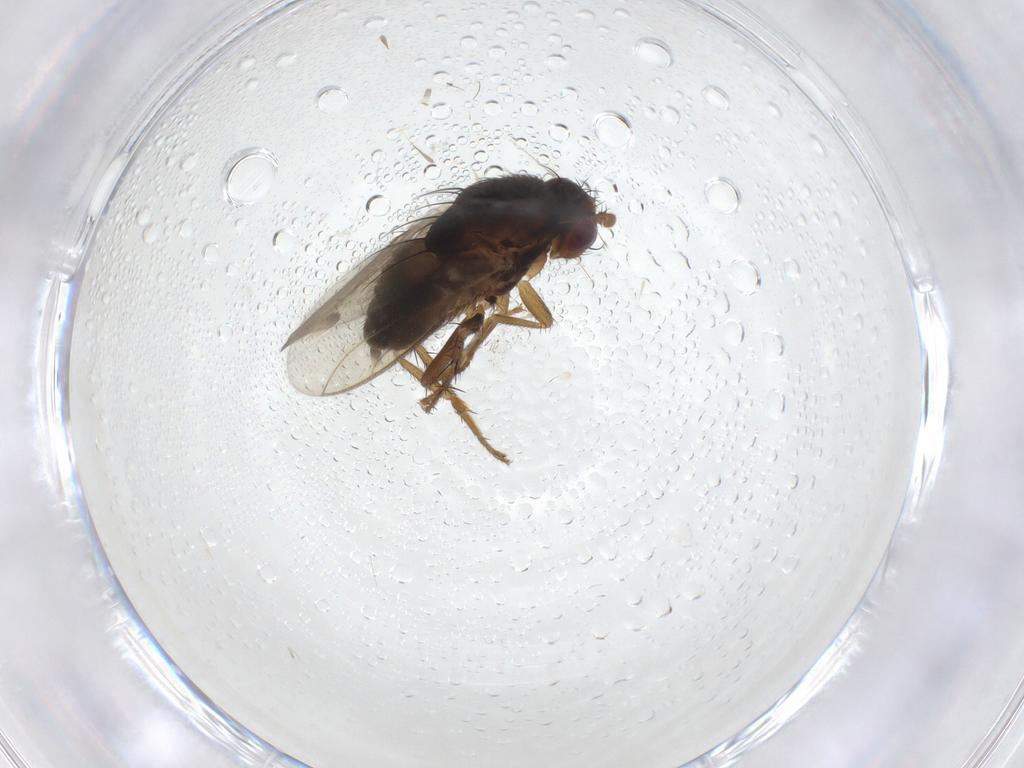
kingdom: Animalia
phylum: Arthropoda
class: Insecta
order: Diptera
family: Sphaeroceridae
